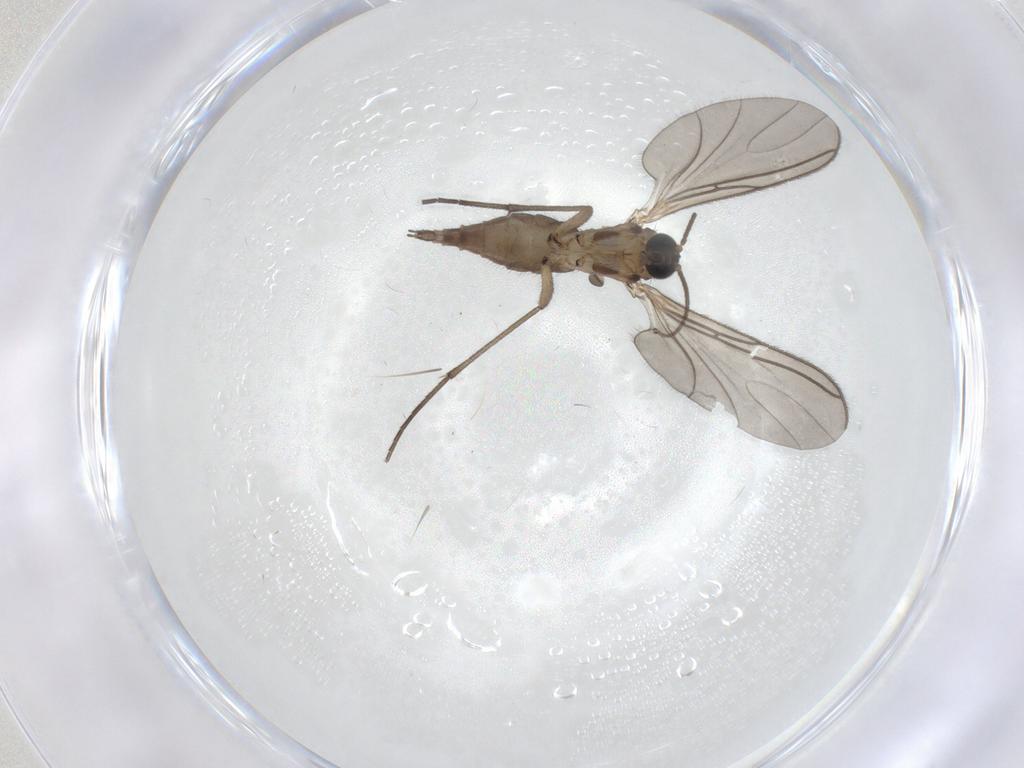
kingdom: Animalia
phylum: Arthropoda
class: Insecta
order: Diptera
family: Sciaridae
